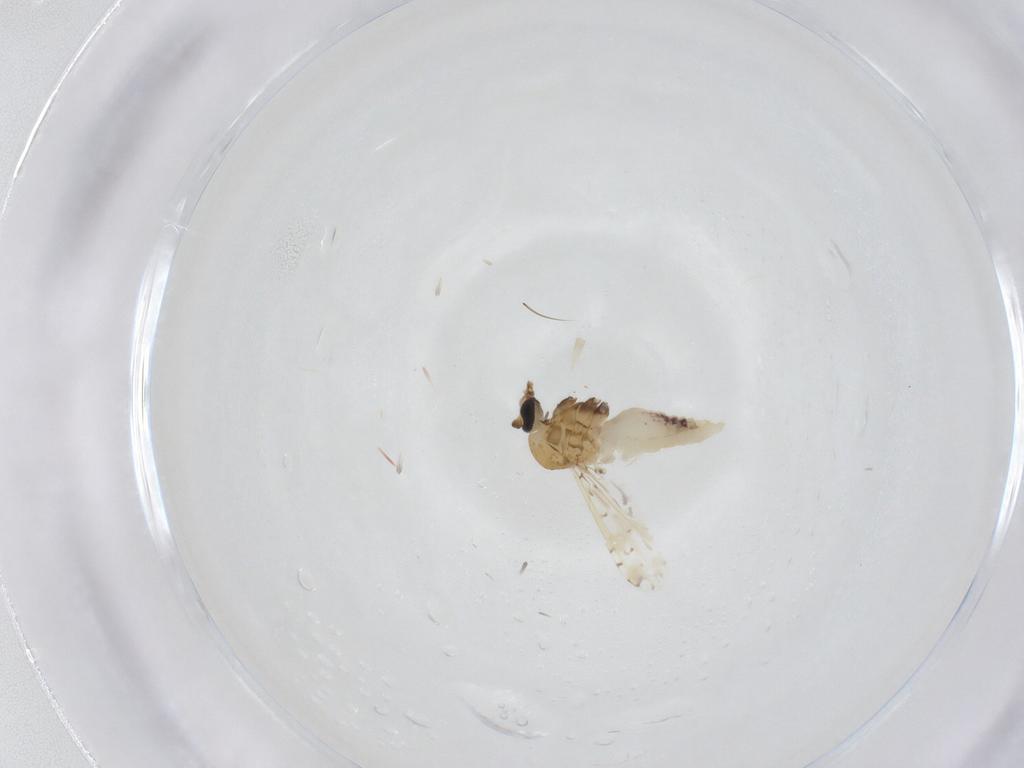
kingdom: Animalia
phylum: Arthropoda
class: Insecta
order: Diptera
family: Ceratopogonidae
